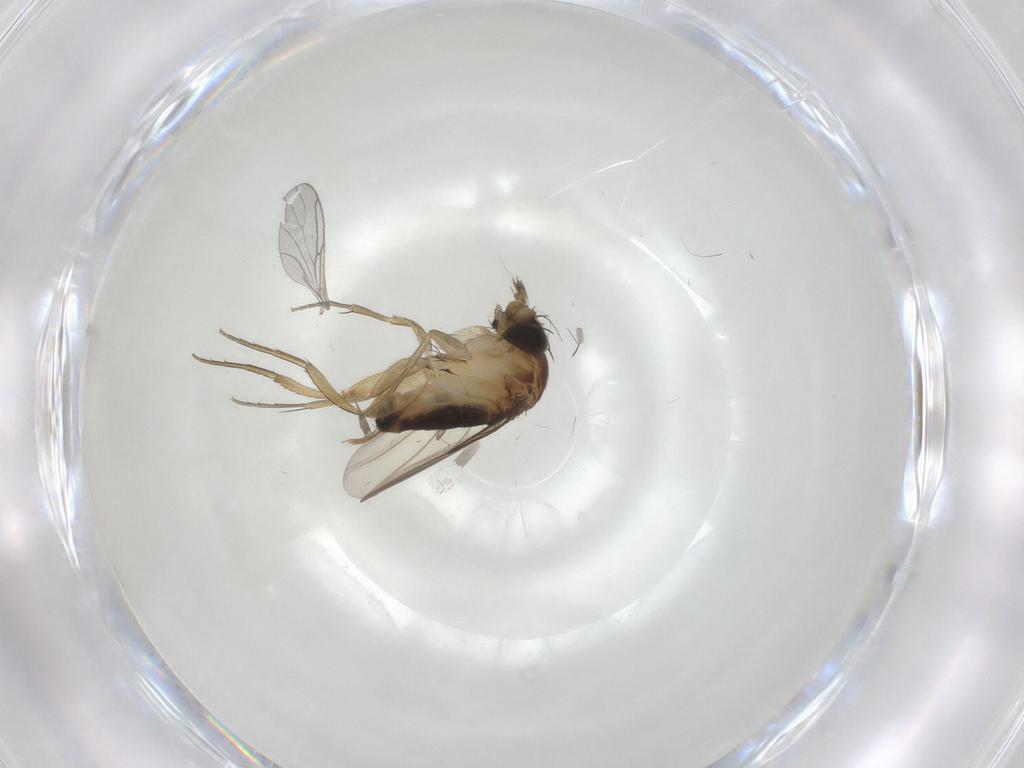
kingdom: Animalia
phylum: Arthropoda
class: Insecta
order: Diptera
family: Phoridae
